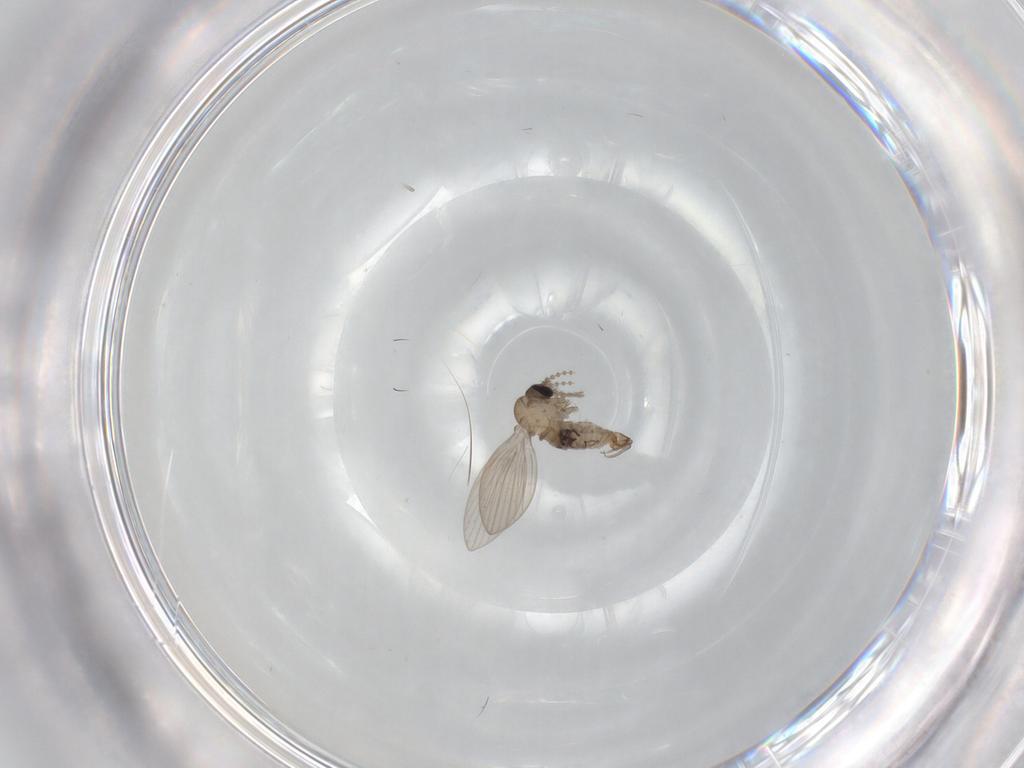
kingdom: Animalia
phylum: Arthropoda
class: Insecta
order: Diptera
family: Psychodidae
